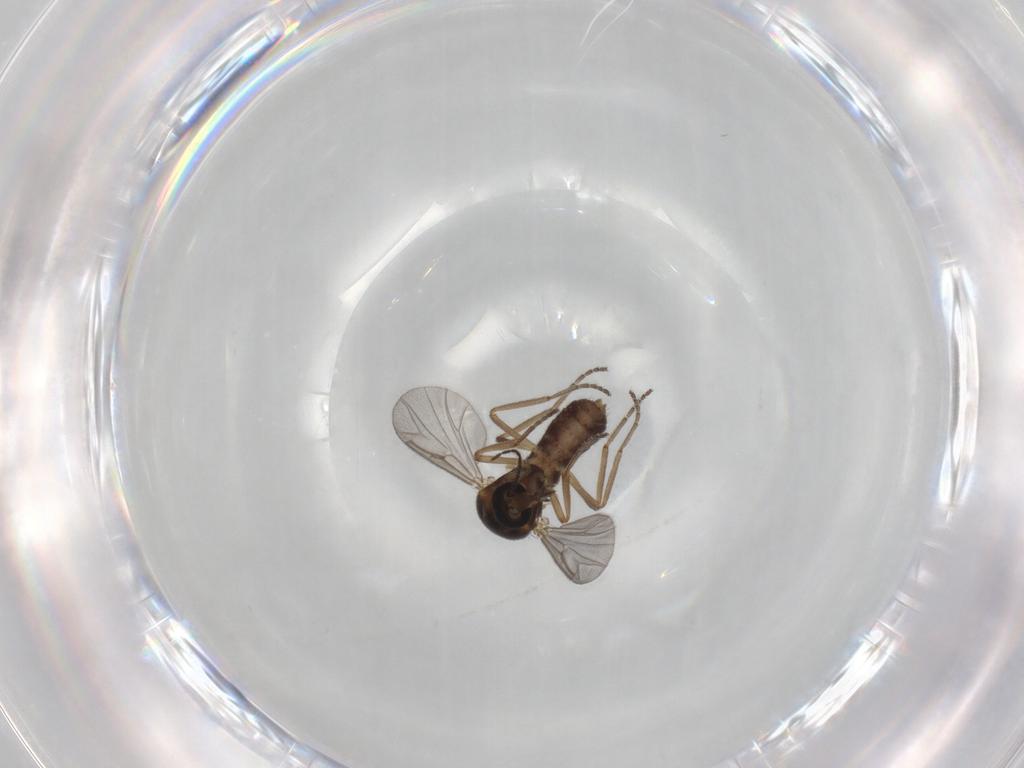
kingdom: Animalia
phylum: Arthropoda
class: Insecta
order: Diptera
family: Ceratopogonidae
